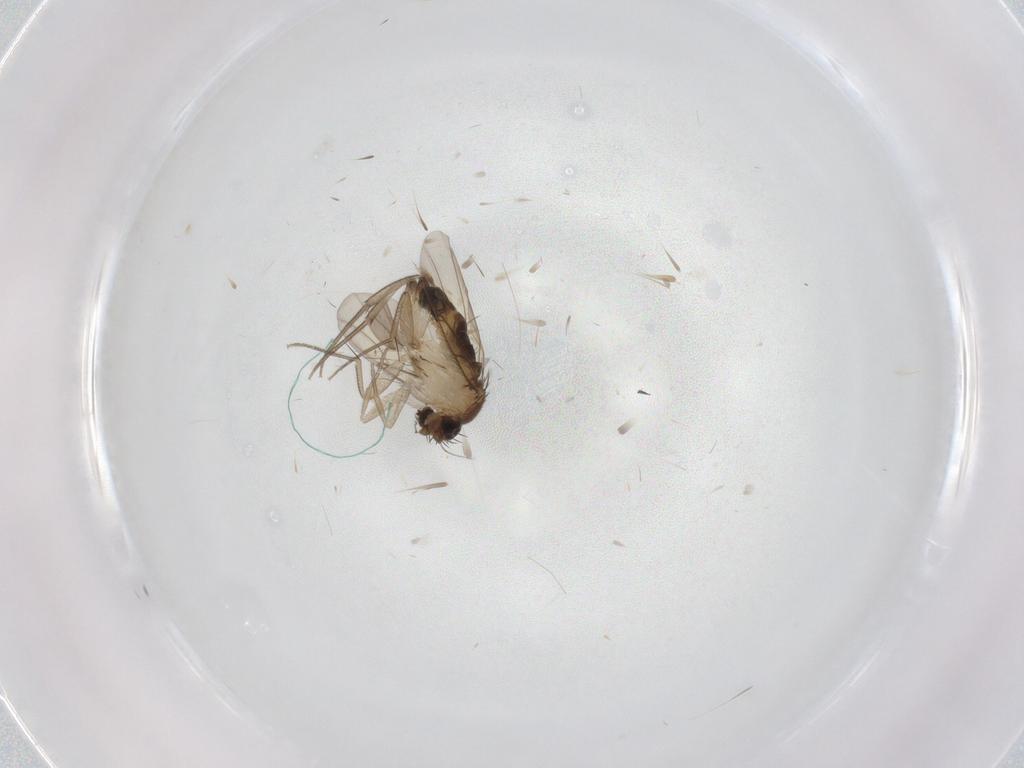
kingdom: Animalia
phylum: Arthropoda
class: Insecta
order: Diptera
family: Phoridae
